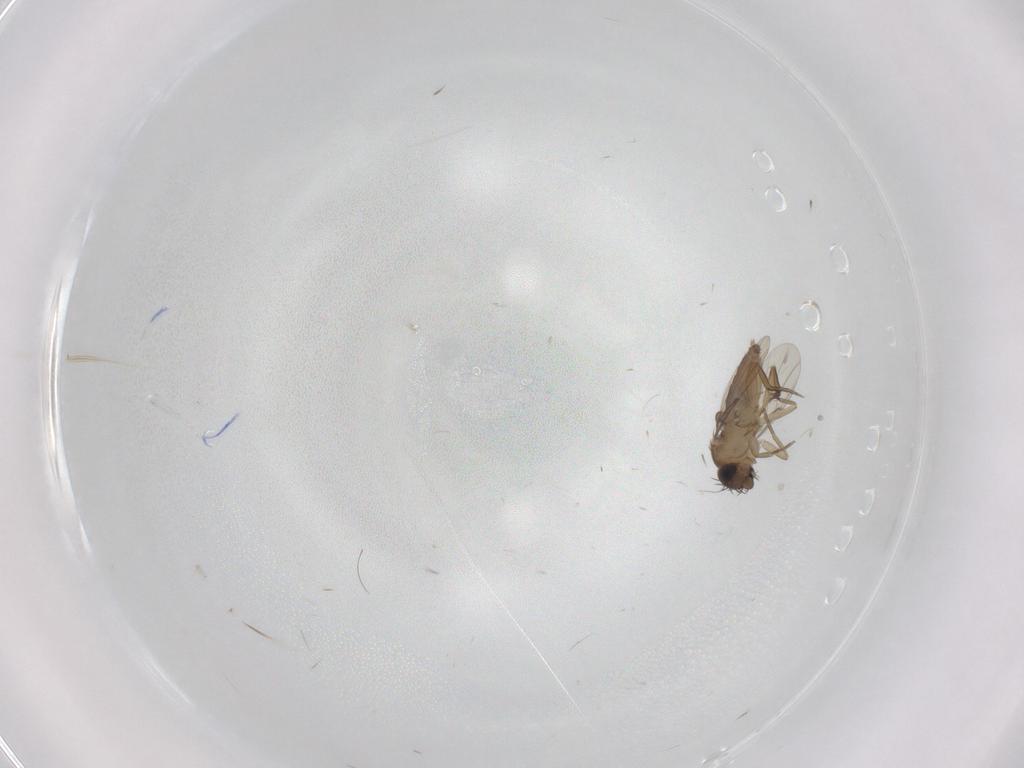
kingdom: Animalia
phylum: Arthropoda
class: Insecta
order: Diptera
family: Phoridae
